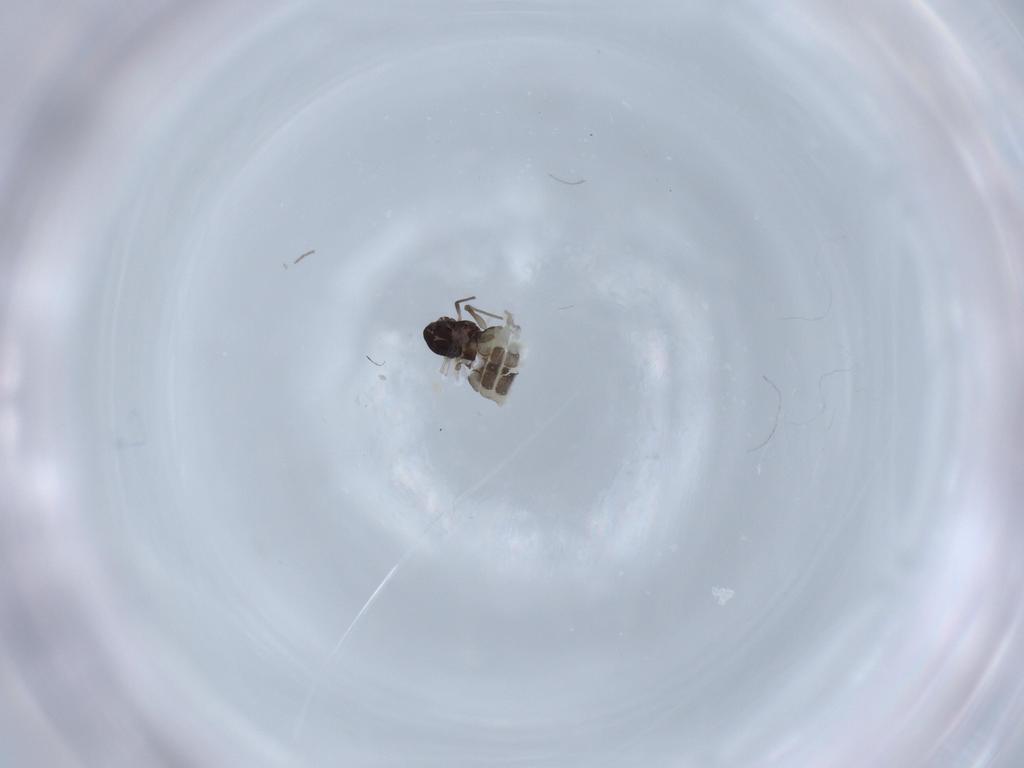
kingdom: Animalia
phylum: Arthropoda
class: Insecta
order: Diptera
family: Chironomidae
